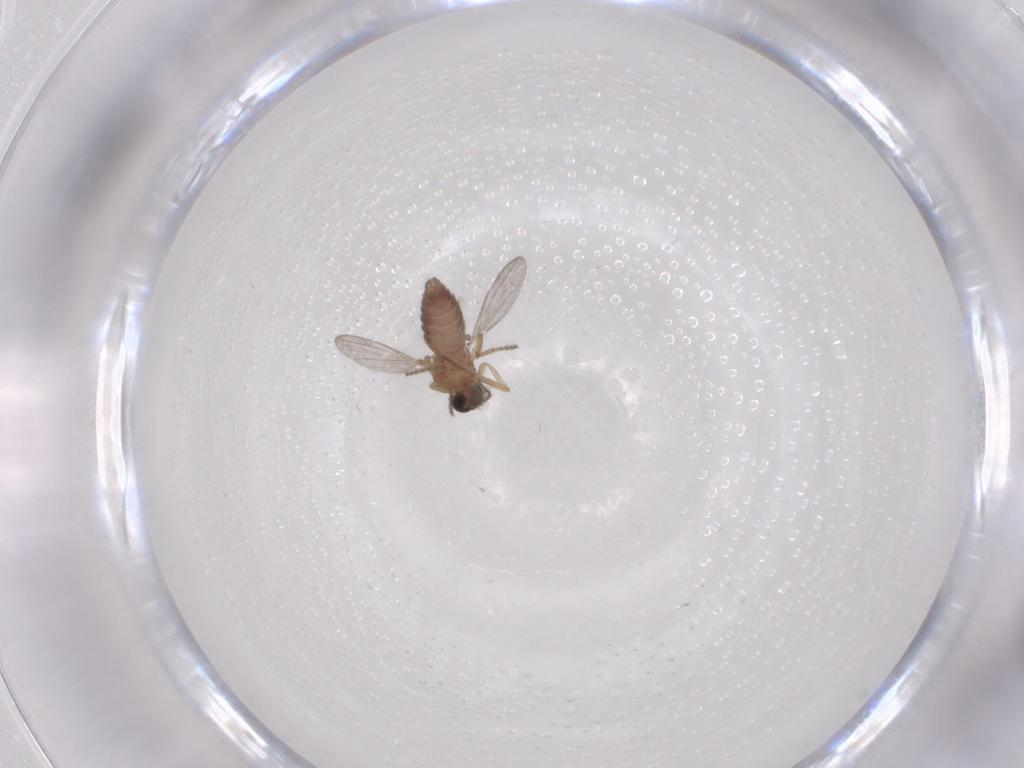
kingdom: Animalia
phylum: Arthropoda
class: Insecta
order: Diptera
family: Ceratopogonidae
